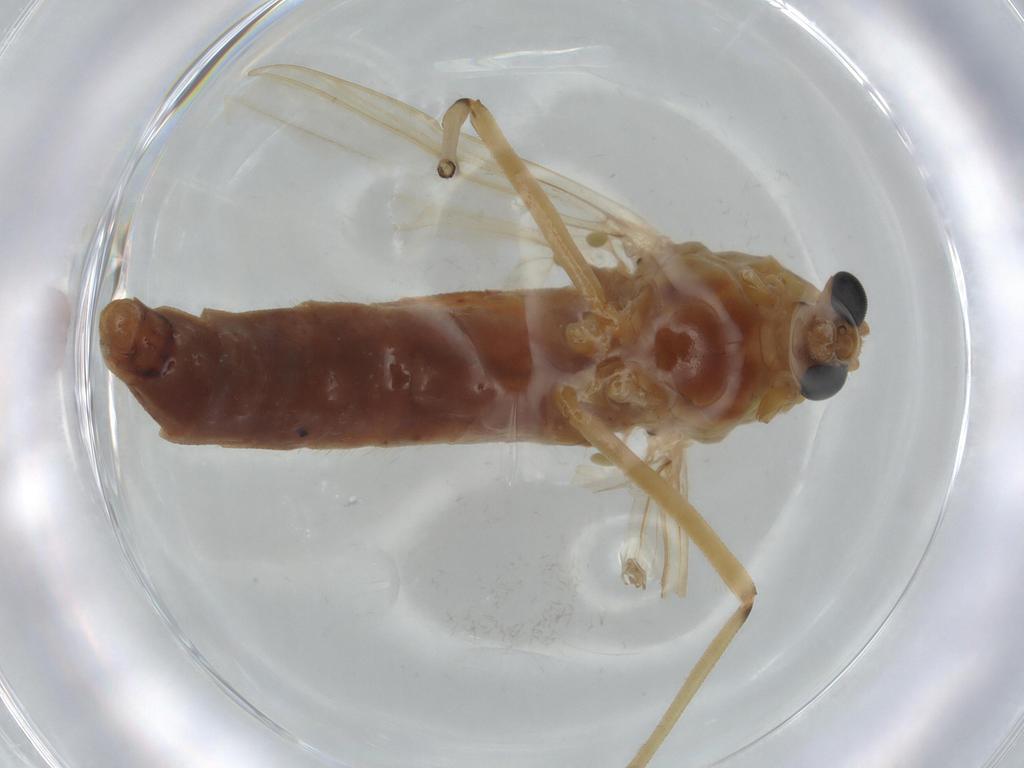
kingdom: Animalia
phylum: Arthropoda
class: Insecta
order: Diptera
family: Chironomidae
